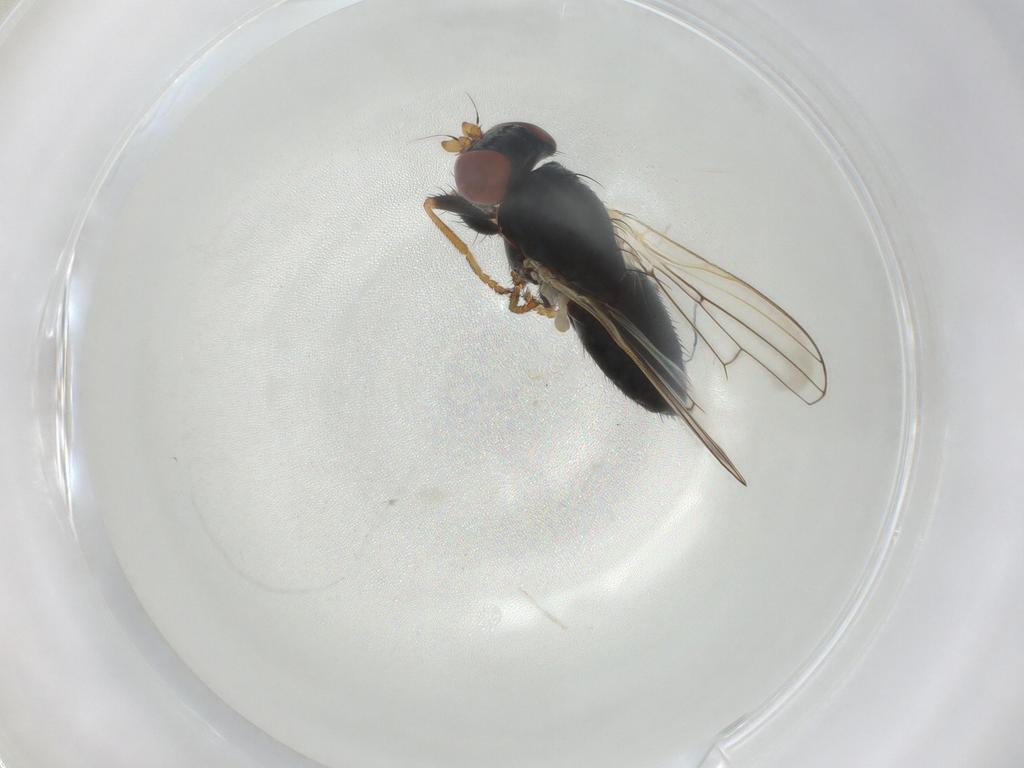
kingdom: Animalia
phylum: Arthropoda
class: Insecta
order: Diptera
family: Chamaemyiidae
